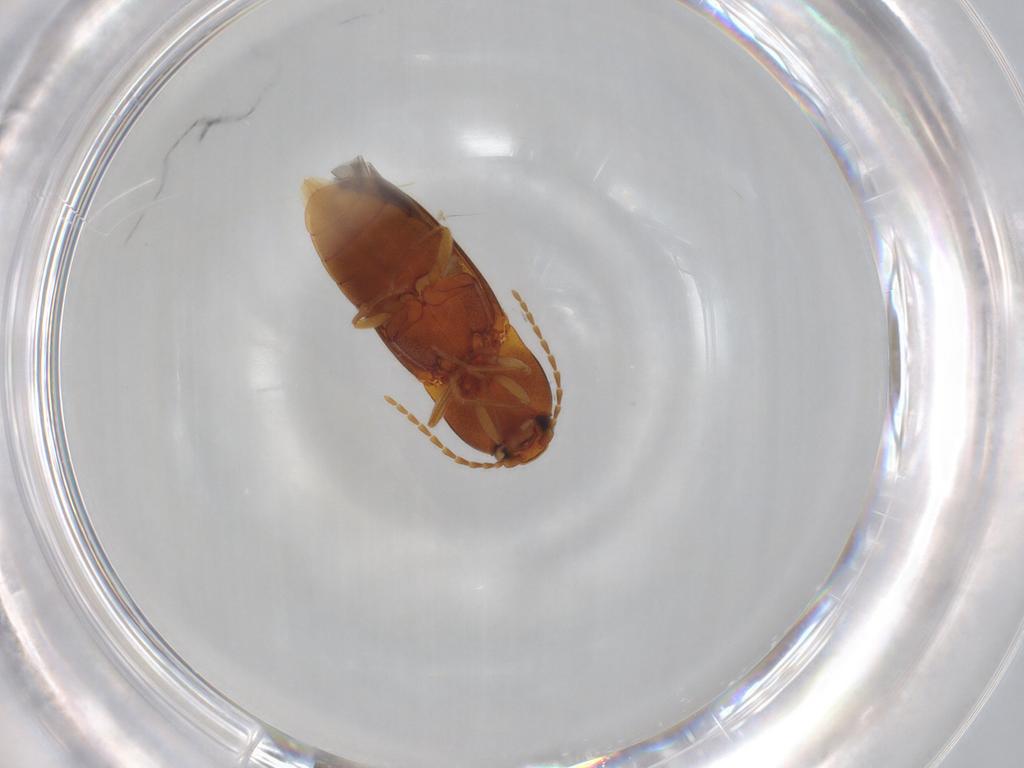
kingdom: Animalia
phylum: Arthropoda
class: Insecta
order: Coleoptera
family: Elateridae
